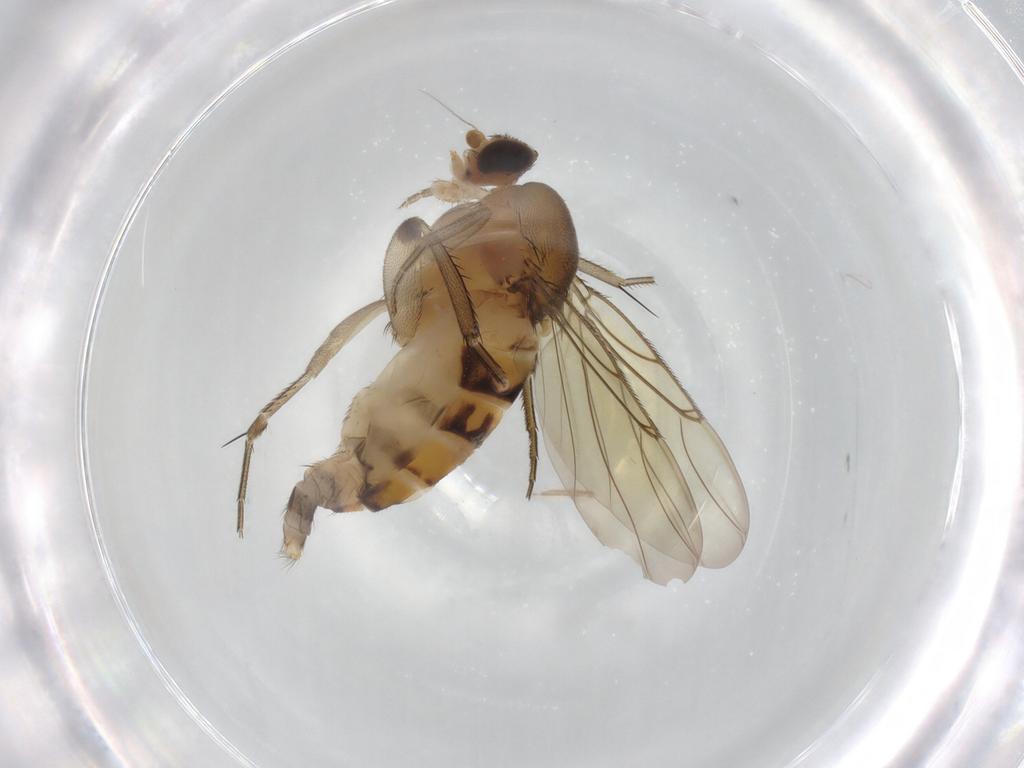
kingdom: Animalia
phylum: Arthropoda
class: Insecta
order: Diptera
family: Phoridae
